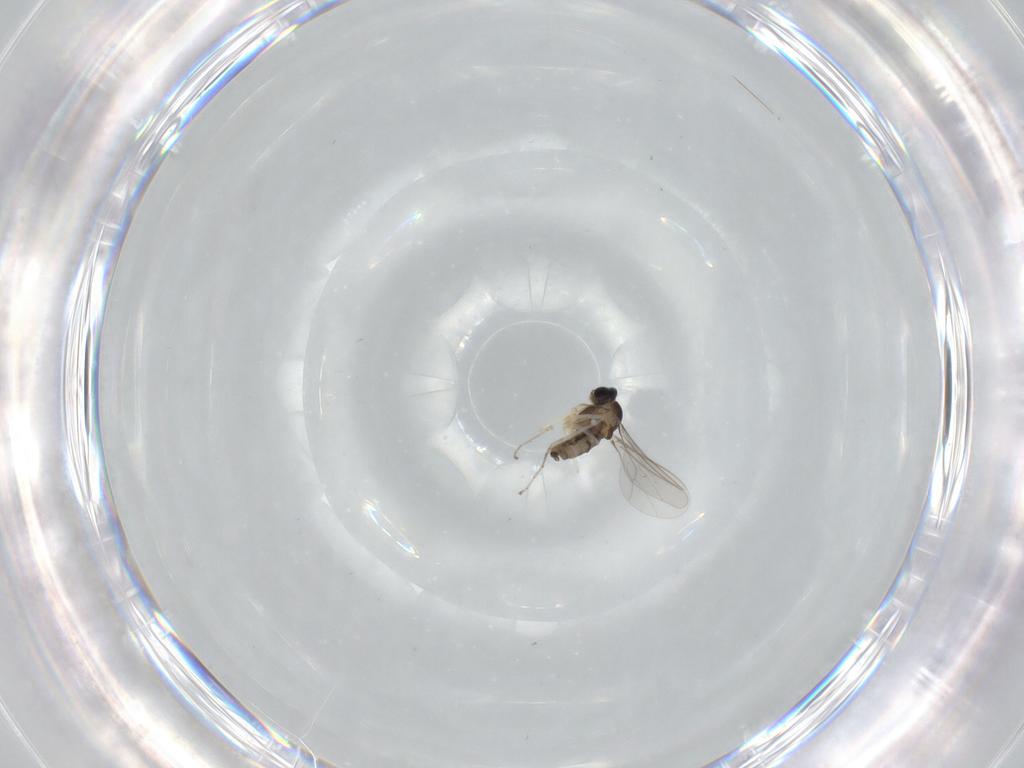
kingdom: Animalia
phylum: Arthropoda
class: Insecta
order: Diptera
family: Cecidomyiidae
